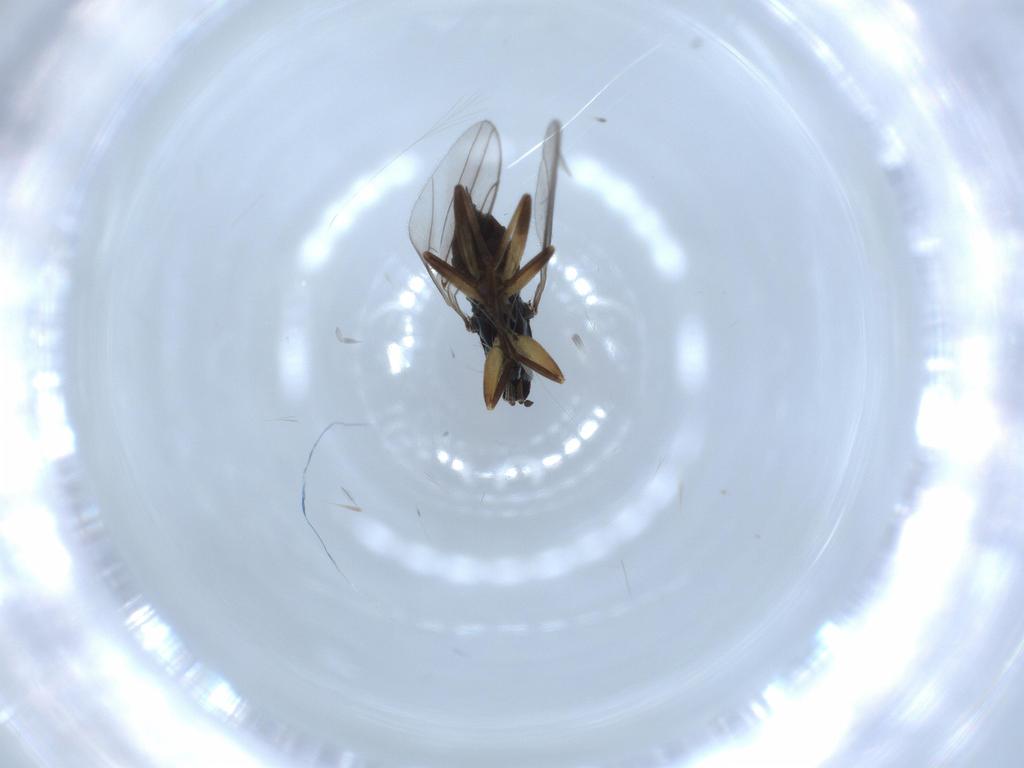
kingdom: Animalia
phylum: Arthropoda
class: Insecta
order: Diptera
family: Hybotidae
